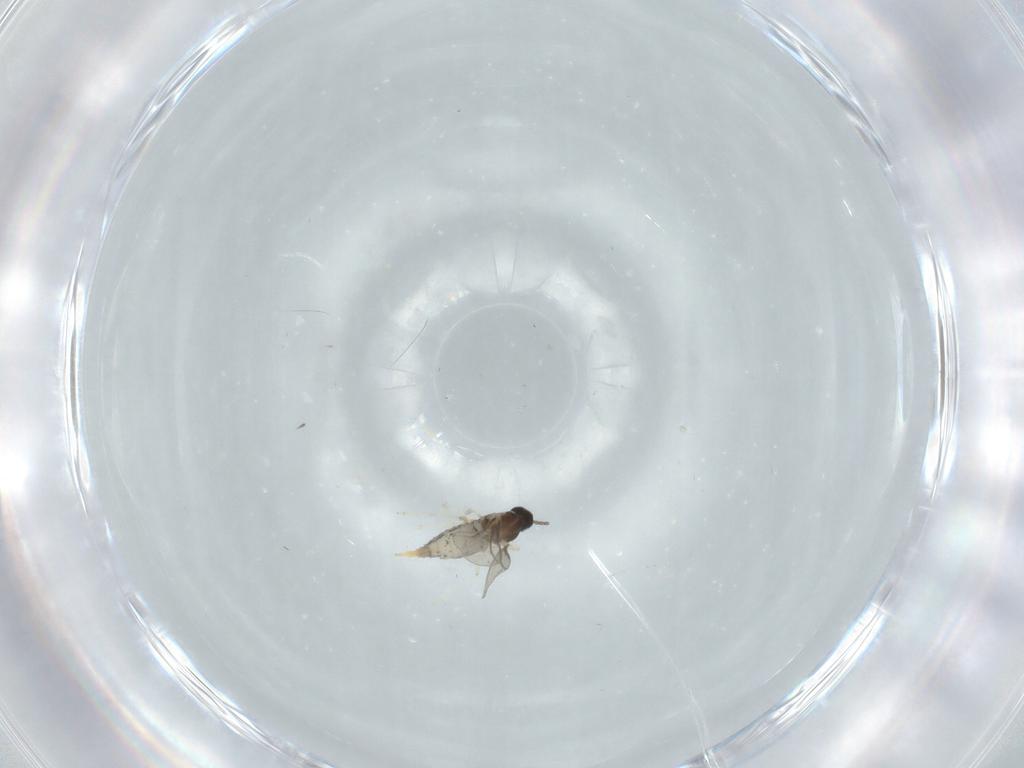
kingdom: Animalia
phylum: Arthropoda
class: Insecta
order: Diptera
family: Cecidomyiidae
